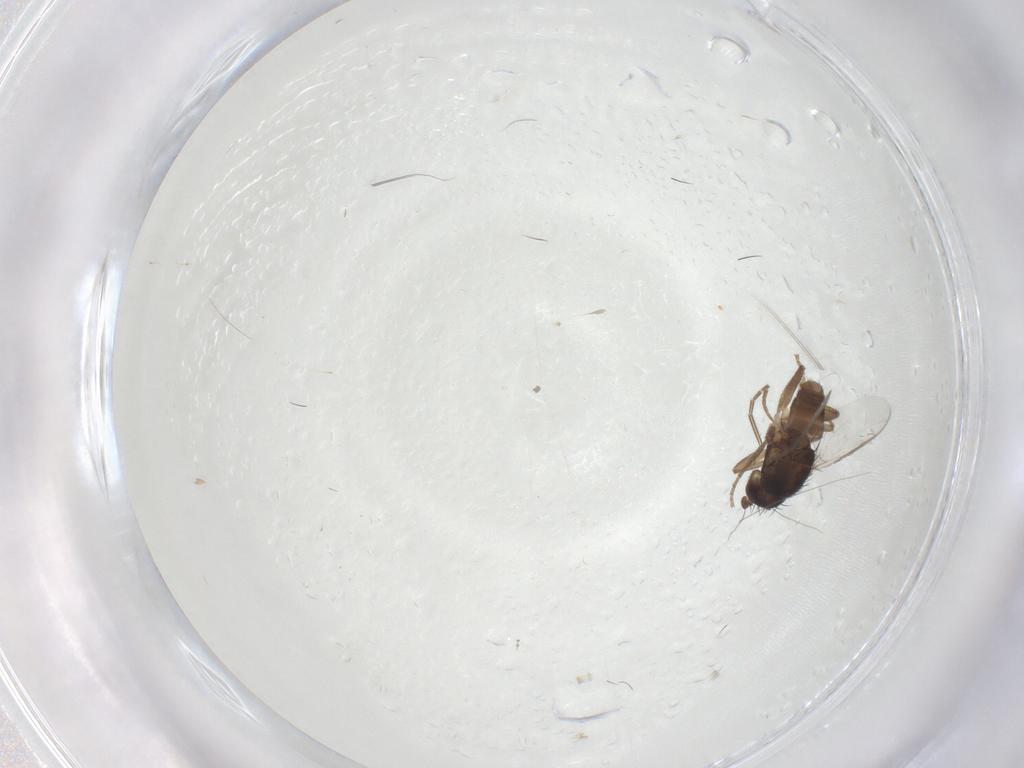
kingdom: Animalia
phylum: Arthropoda
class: Insecta
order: Diptera
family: Sphaeroceridae
